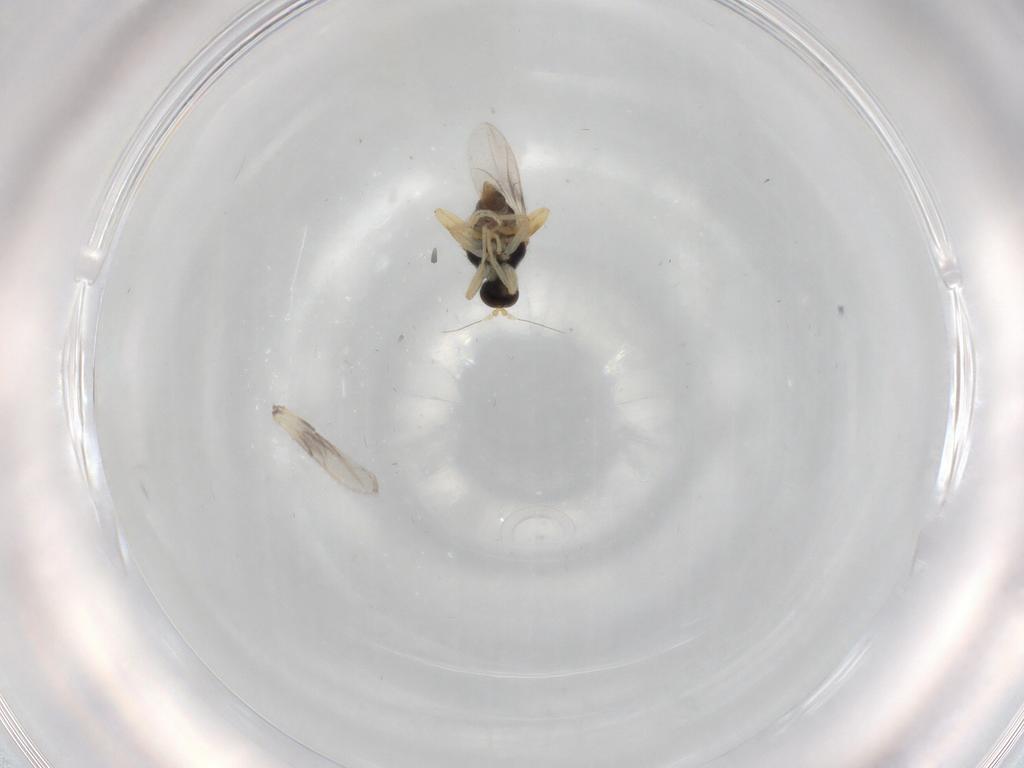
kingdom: Animalia
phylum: Arthropoda
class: Insecta
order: Diptera
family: Hybotidae
